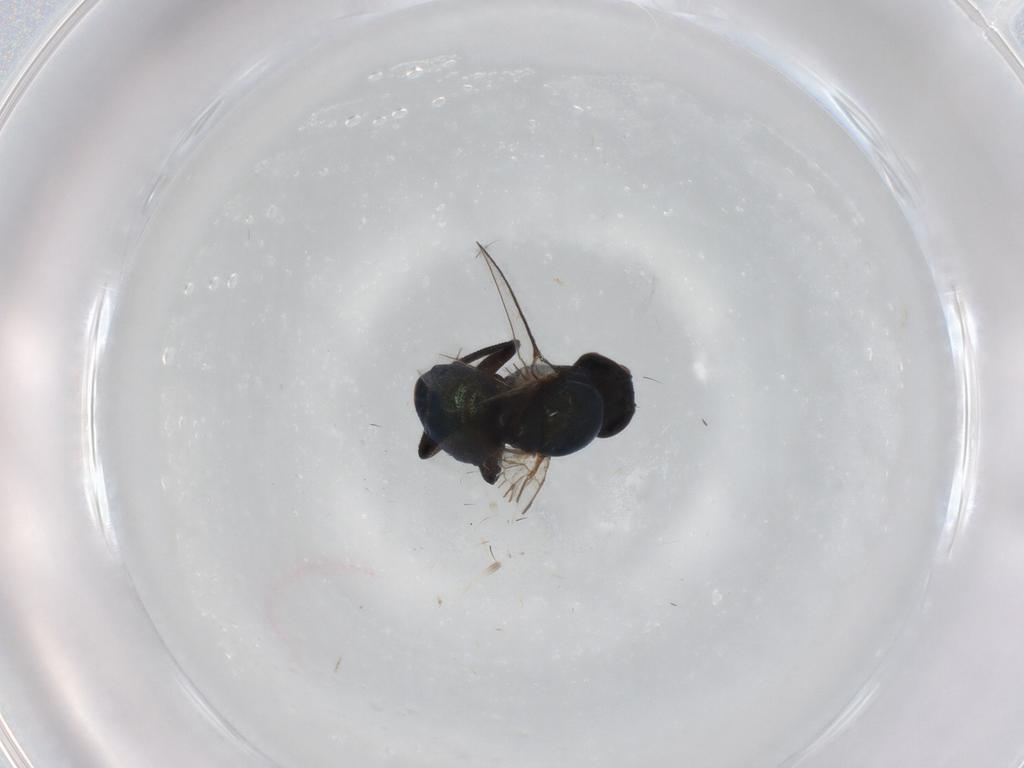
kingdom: Animalia
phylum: Arthropoda
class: Insecta
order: Diptera
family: Agromyzidae
